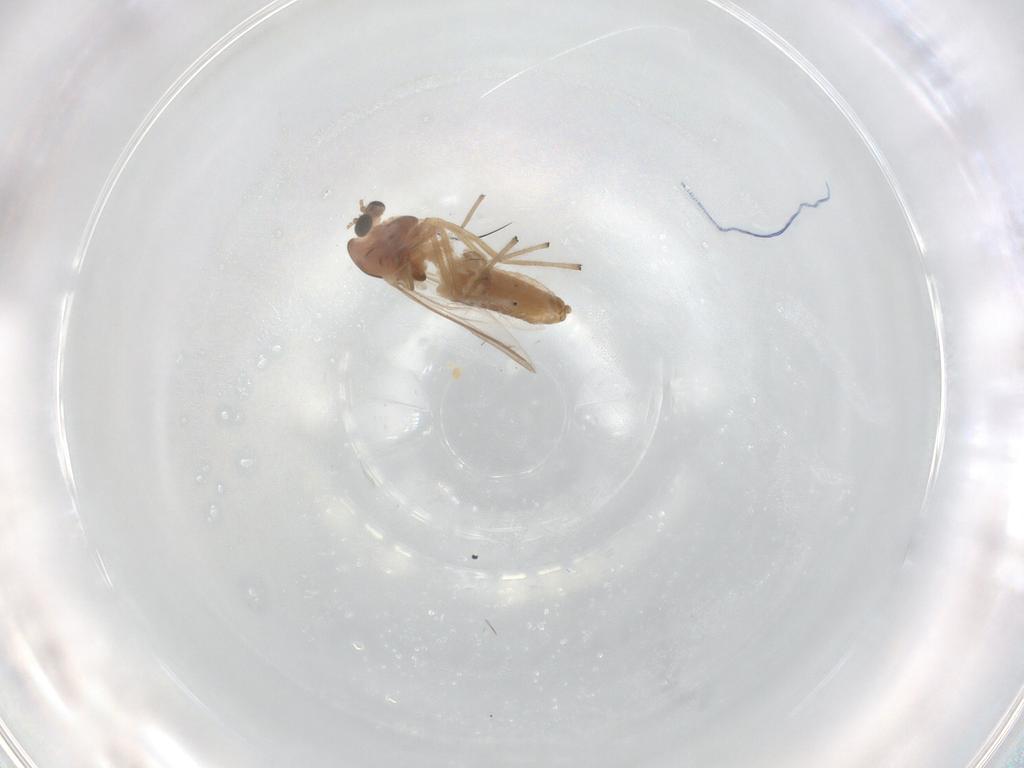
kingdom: Animalia
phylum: Arthropoda
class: Insecta
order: Diptera
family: Chironomidae
